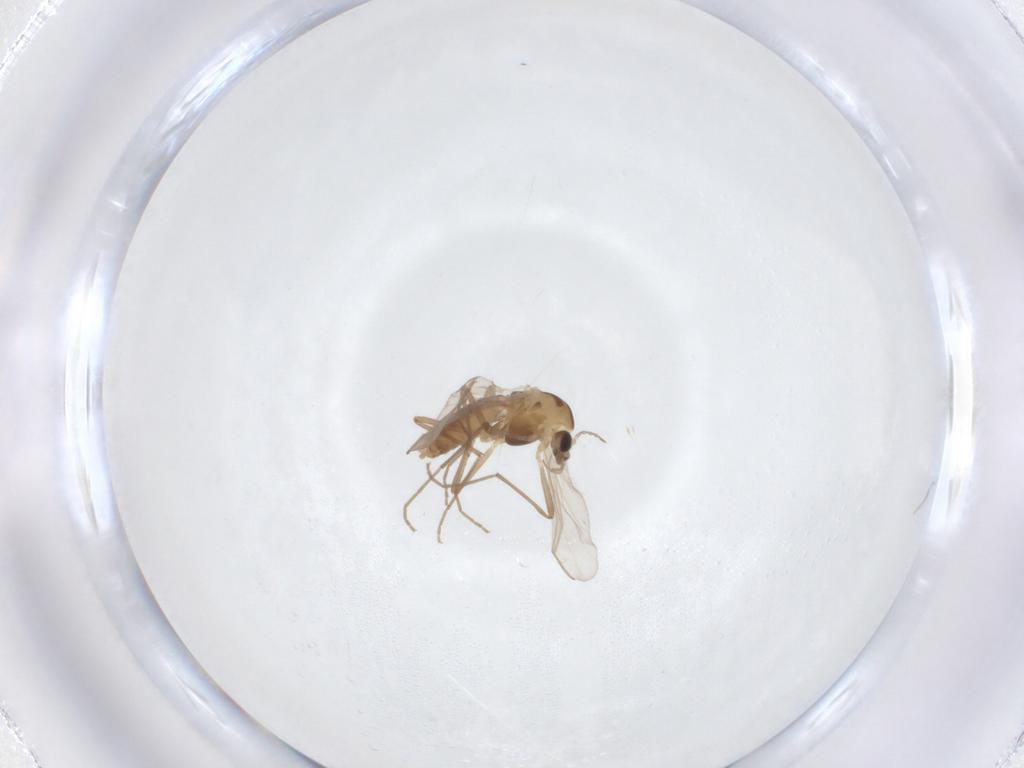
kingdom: Animalia
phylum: Arthropoda
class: Insecta
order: Diptera
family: Chironomidae
